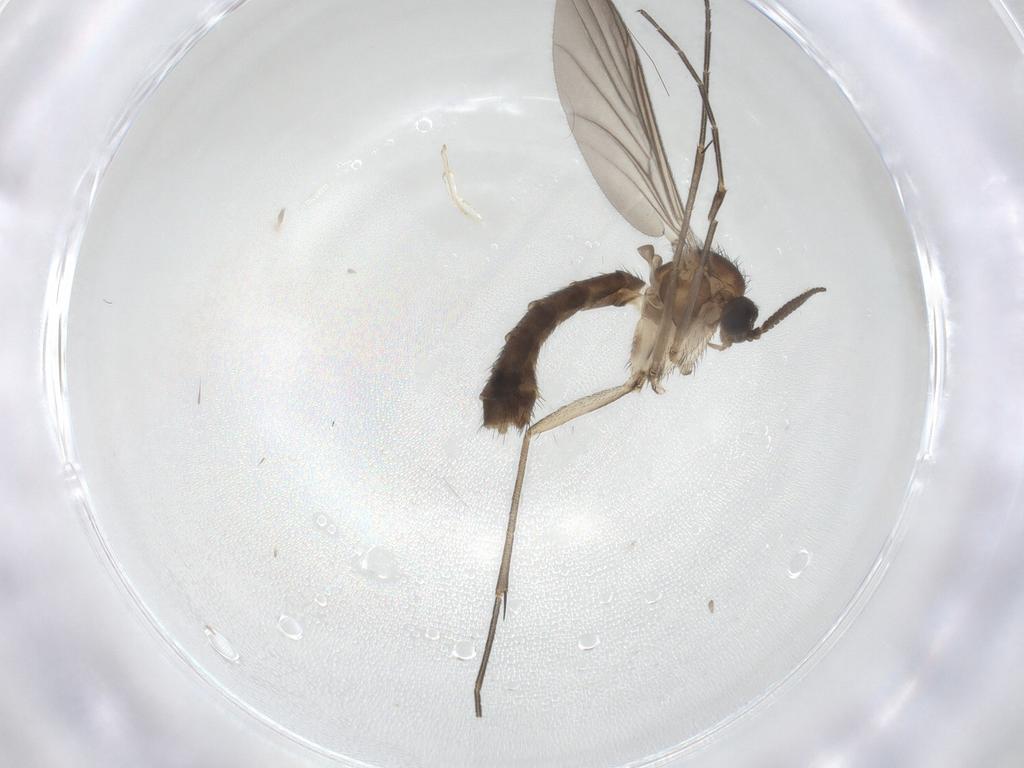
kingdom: Animalia
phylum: Arthropoda
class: Insecta
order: Diptera
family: Keroplatidae
